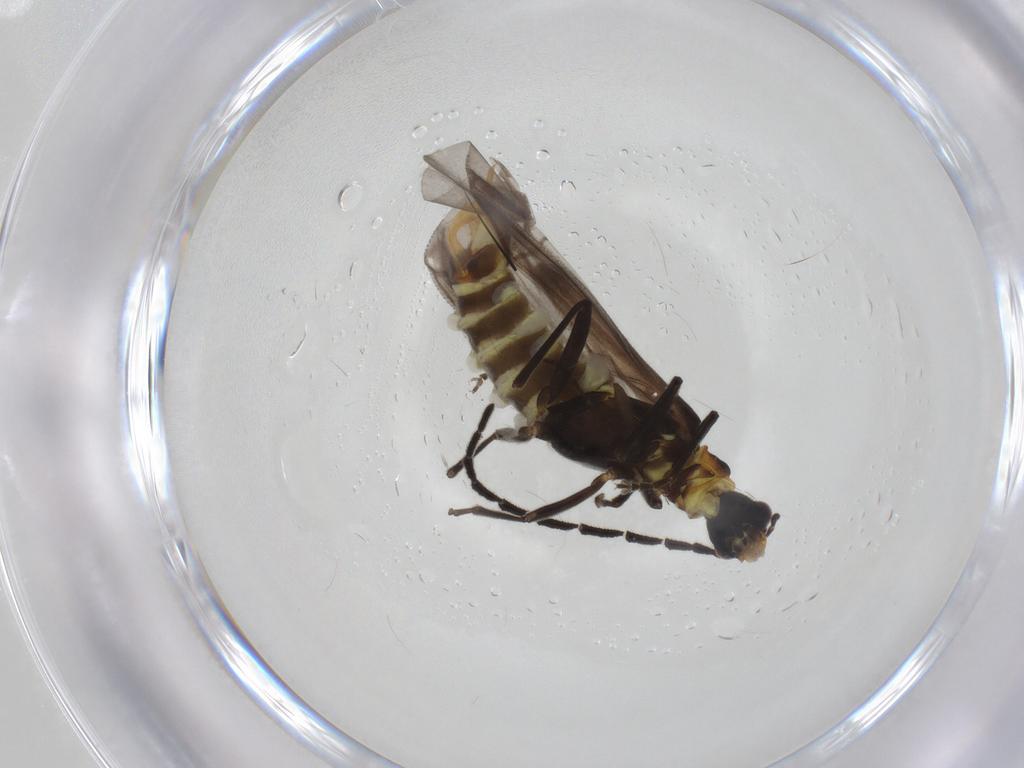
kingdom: Animalia
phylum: Arthropoda
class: Insecta
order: Coleoptera
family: Cantharidae
